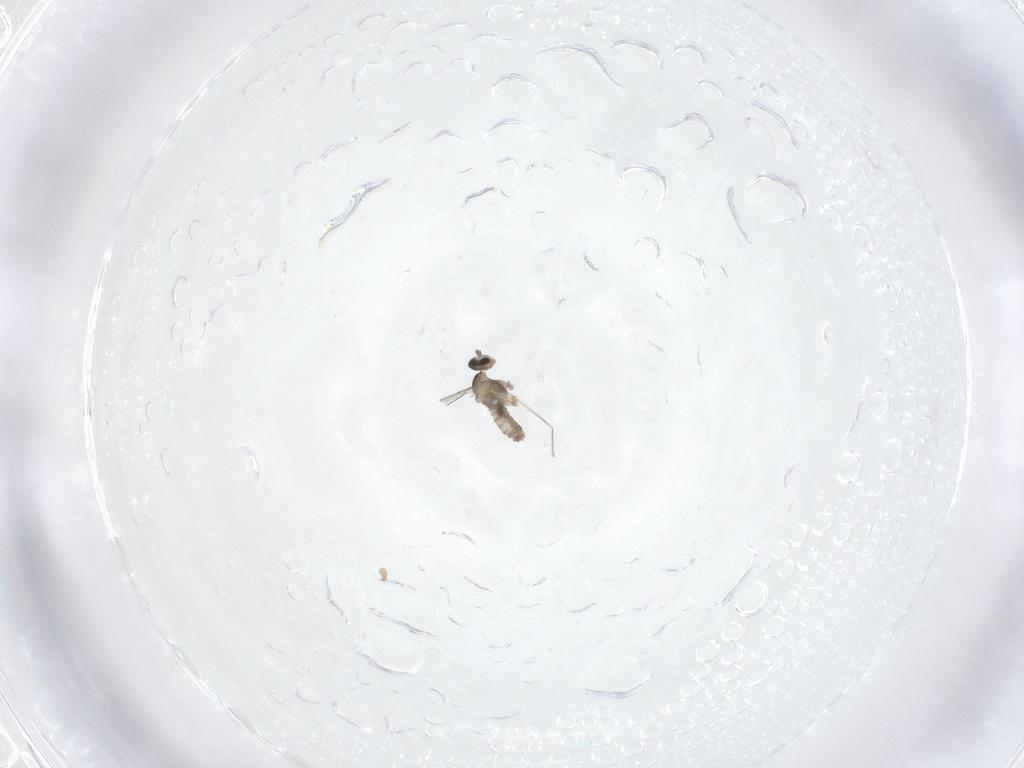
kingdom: Animalia
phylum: Arthropoda
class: Insecta
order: Diptera
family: Cecidomyiidae
